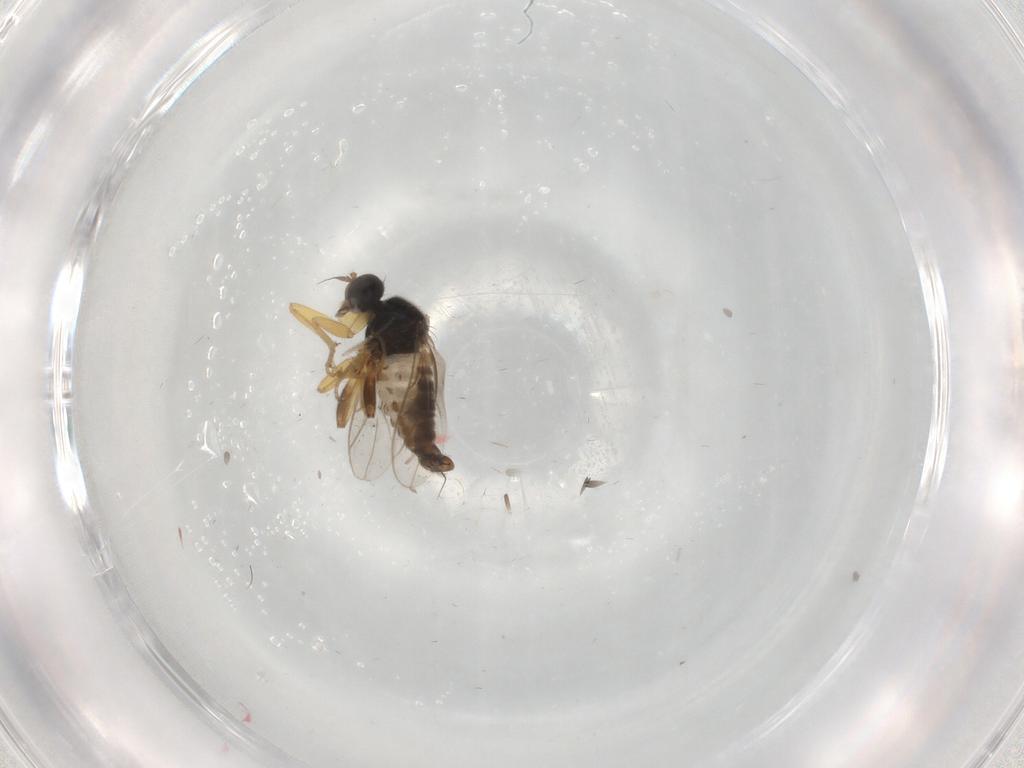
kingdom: Animalia
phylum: Arthropoda
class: Insecta
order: Diptera
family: Hybotidae
